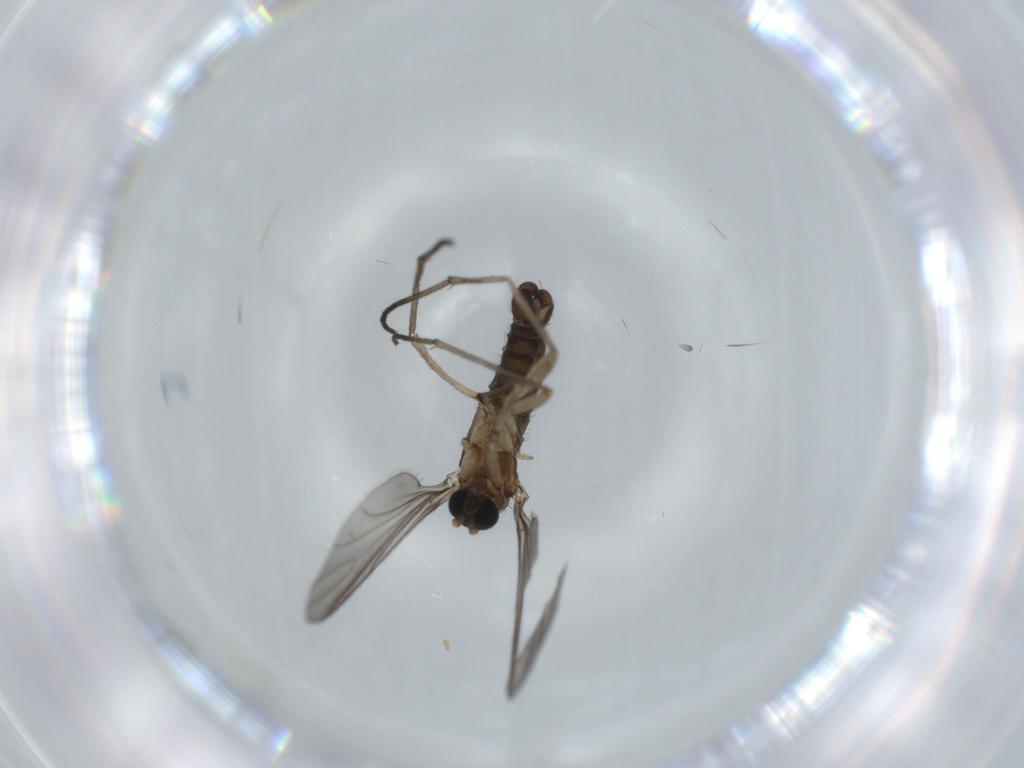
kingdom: Animalia
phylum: Arthropoda
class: Insecta
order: Diptera
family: Sciaridae
